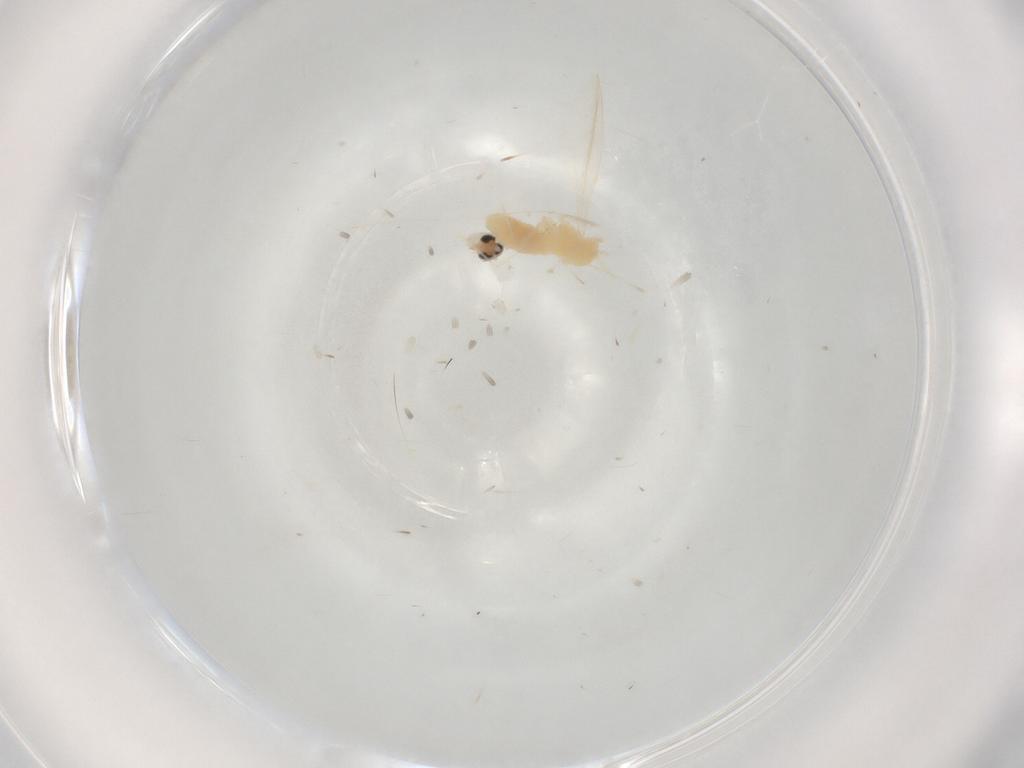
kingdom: Animalia
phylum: Arthropoda
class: Insecta
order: Diptera
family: Cecidomyiidae
